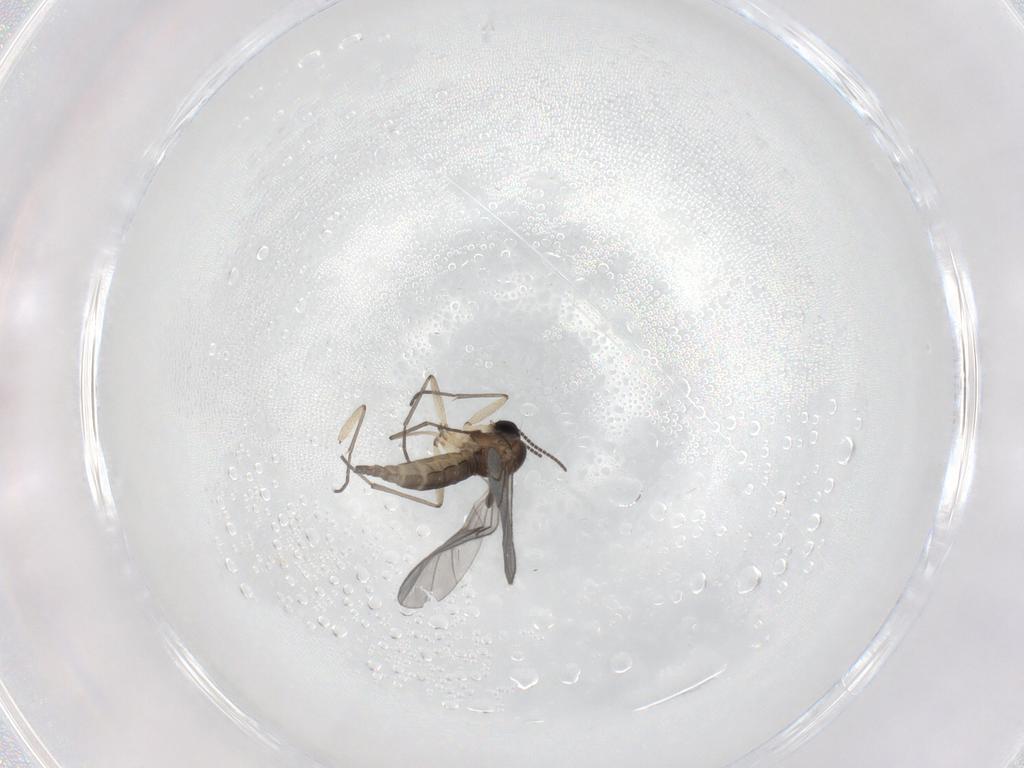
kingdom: Animalia
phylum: Arthropoda
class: Insecta
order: Diptera
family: Sciaridae
